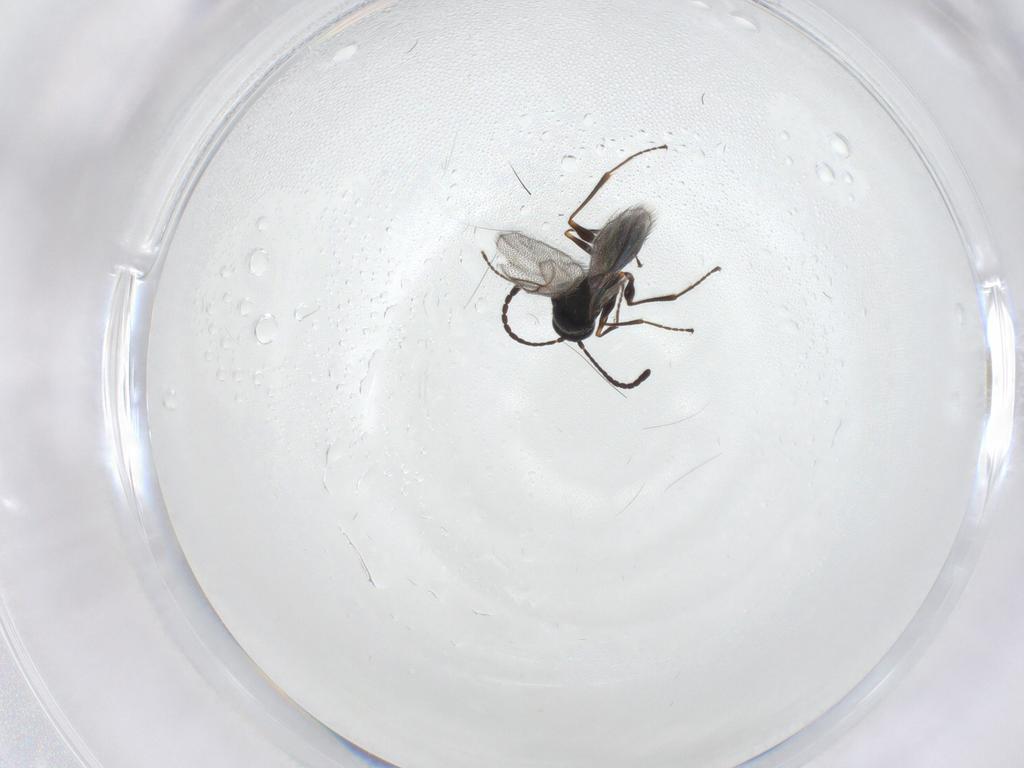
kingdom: Animalia
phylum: Arthropoda
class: Insecta
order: Hymenoptera
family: Figitidae
